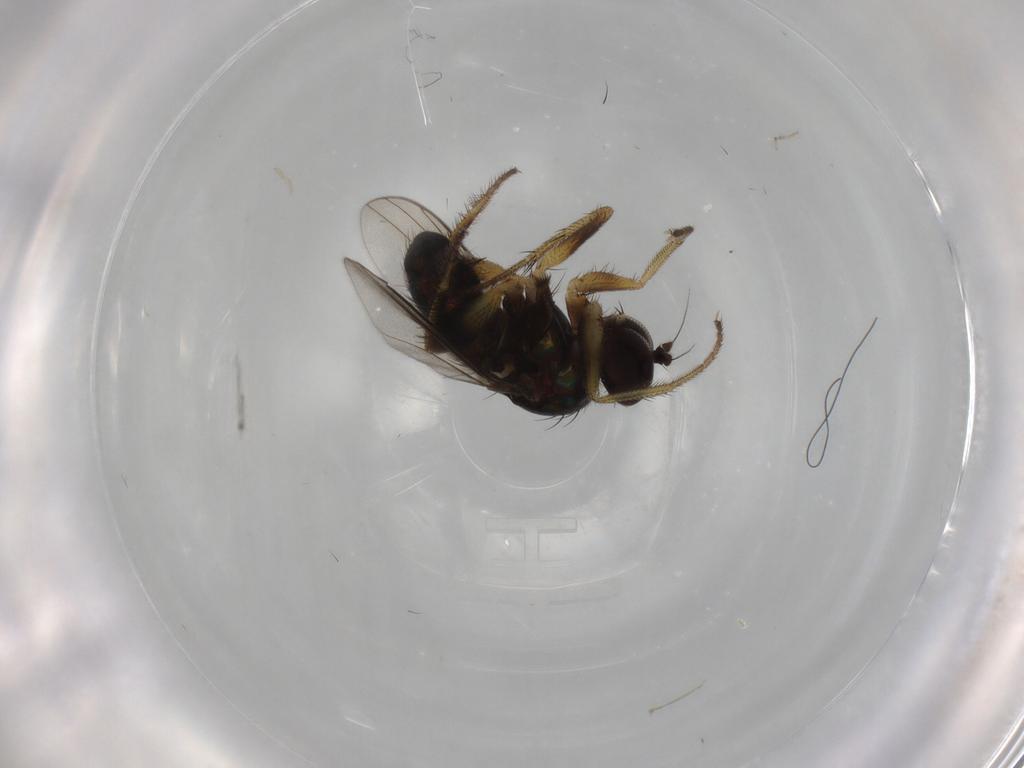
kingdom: Animalia
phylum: Arthropoda
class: Insecta
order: Diptera
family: Dolichopodidae
